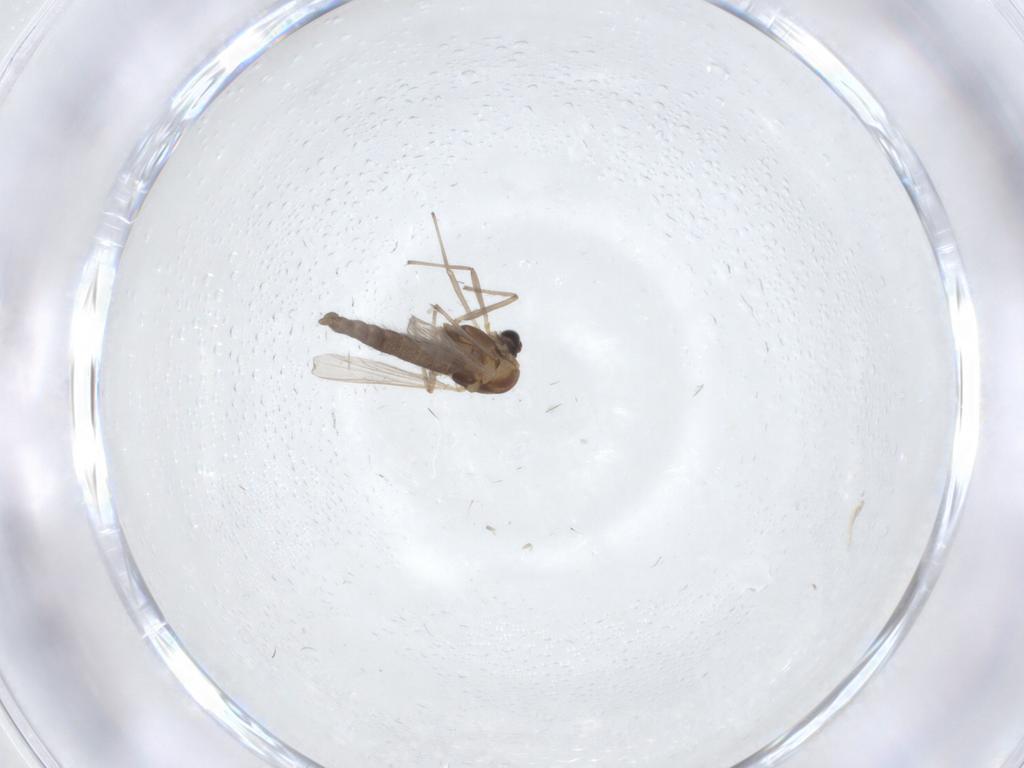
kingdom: Animalia
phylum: Arthropoda
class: Insecta
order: Diptera
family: Chironomidae
